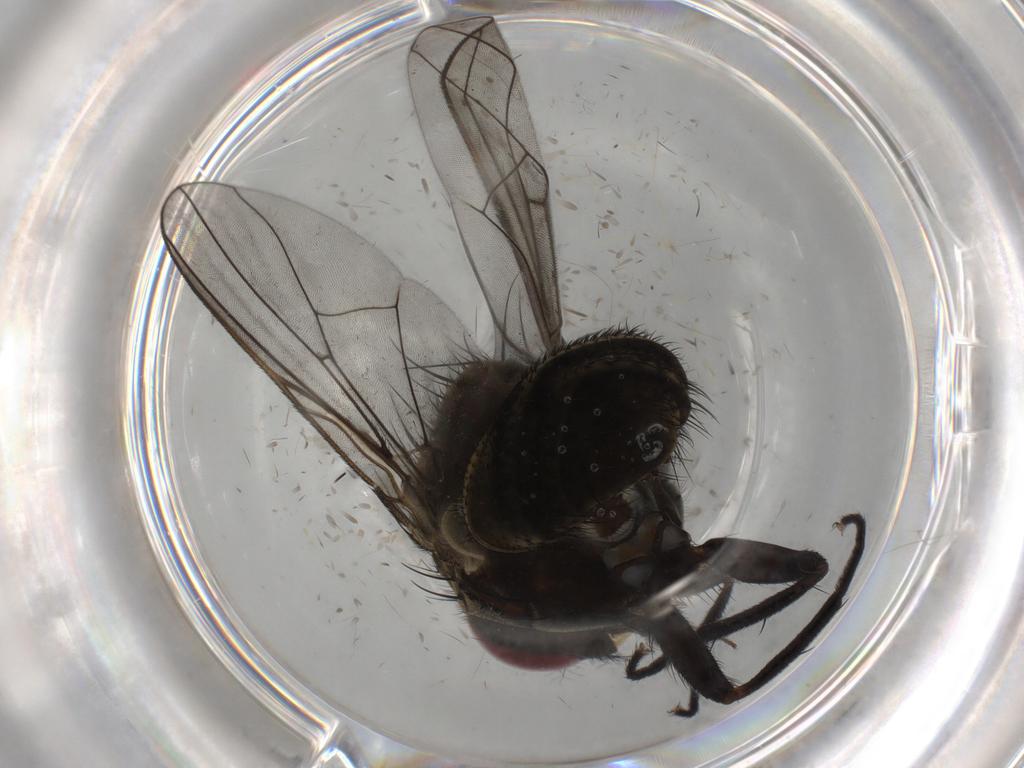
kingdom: Animalia
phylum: Arthropoda
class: Insecta
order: Diptera
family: Limoniidae
